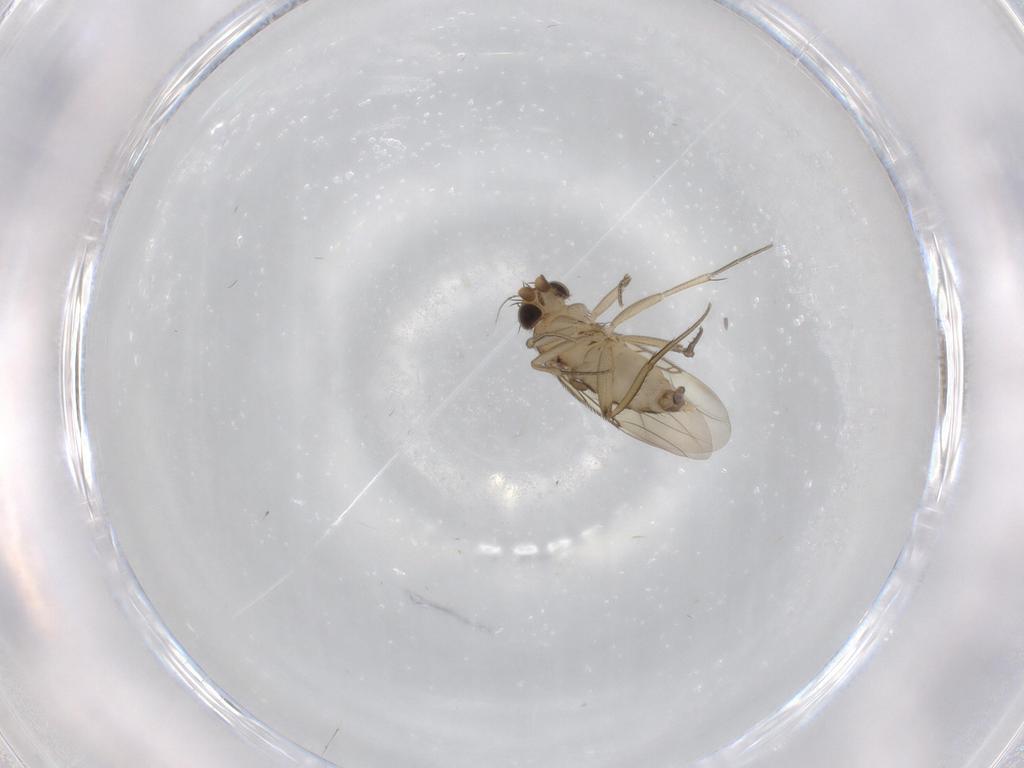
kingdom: Animalia
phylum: Arthropoda
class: Insecta
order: Diptera
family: Phoridae
